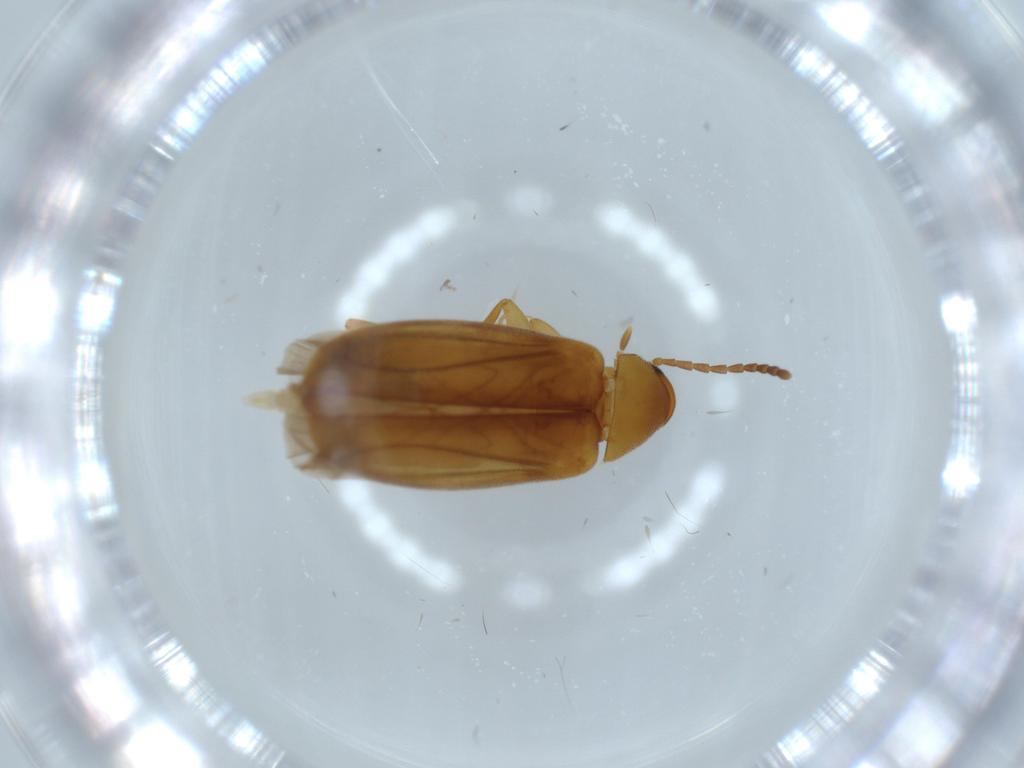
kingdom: Animalia
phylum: Arthropoda
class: Insecta
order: Coleoptera
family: Scraptiidae
